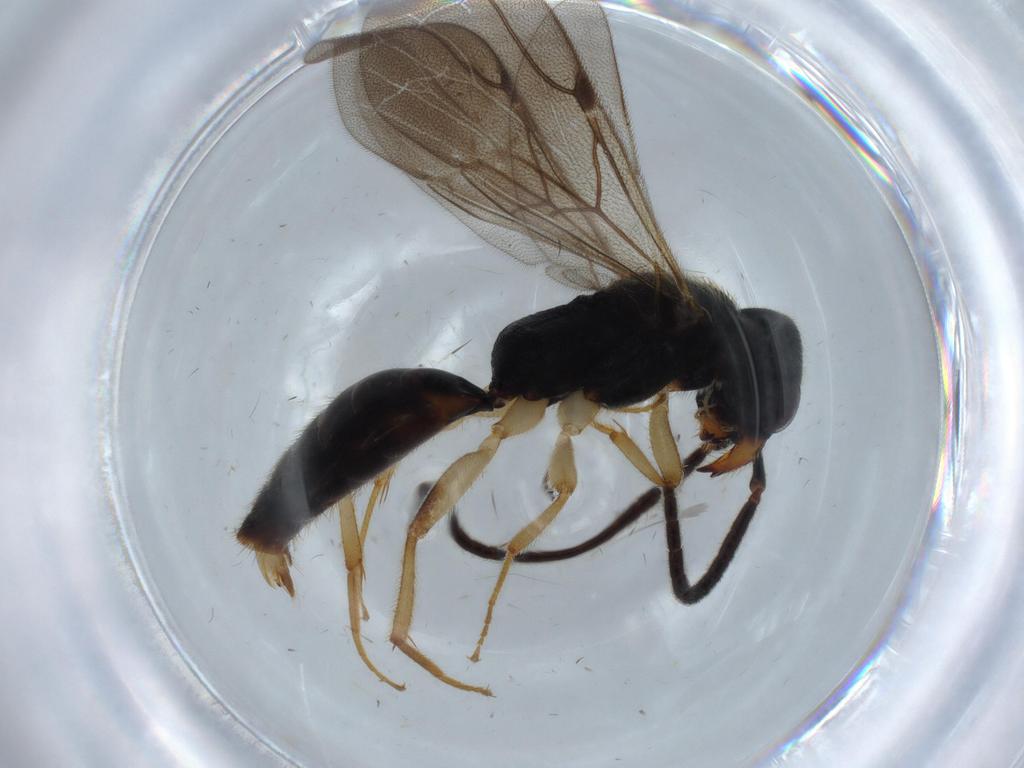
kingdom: Animalia
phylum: Arthropoda
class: Insecta
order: Hymenoptera
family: Bethylidae
